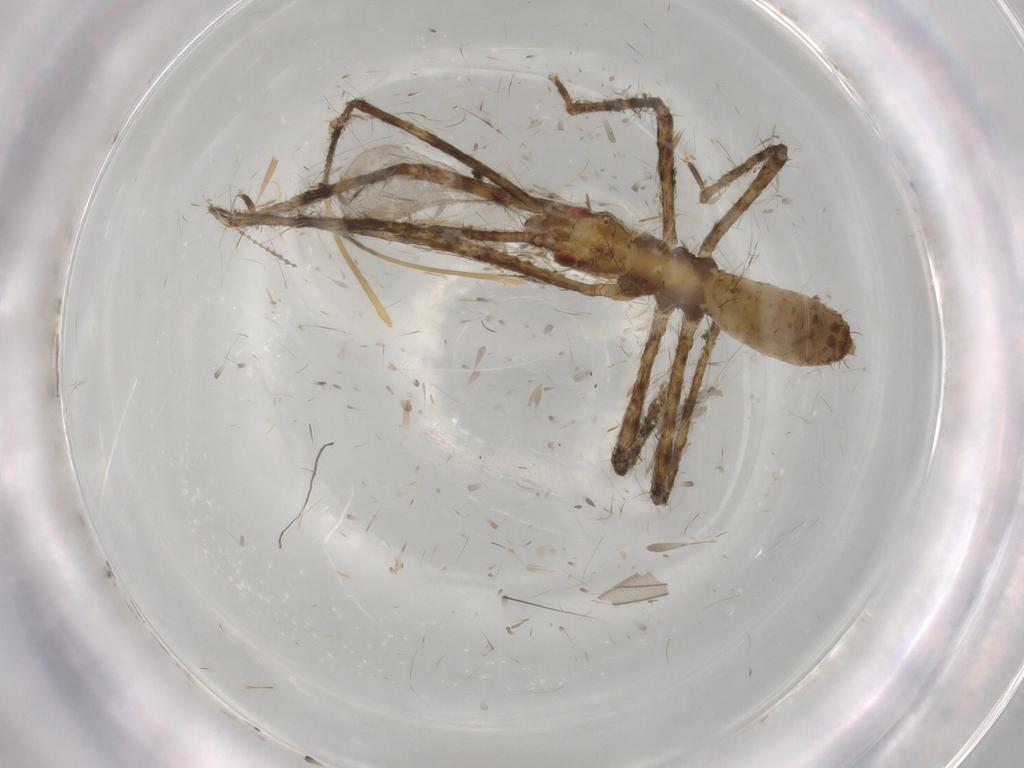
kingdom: Animalia
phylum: Arthropoda
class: Insecta
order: Hemiptera
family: Reduviidae
